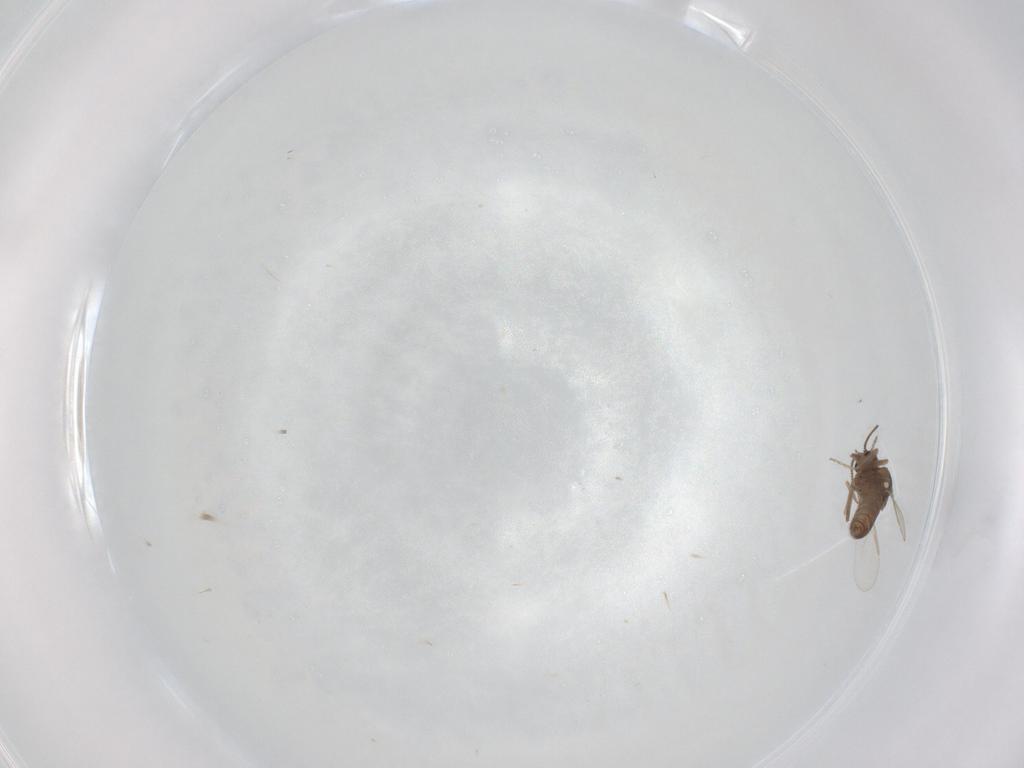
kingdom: Animalia
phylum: Arthropoda
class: Insecta
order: Diptera
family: Ceratopogonidae
